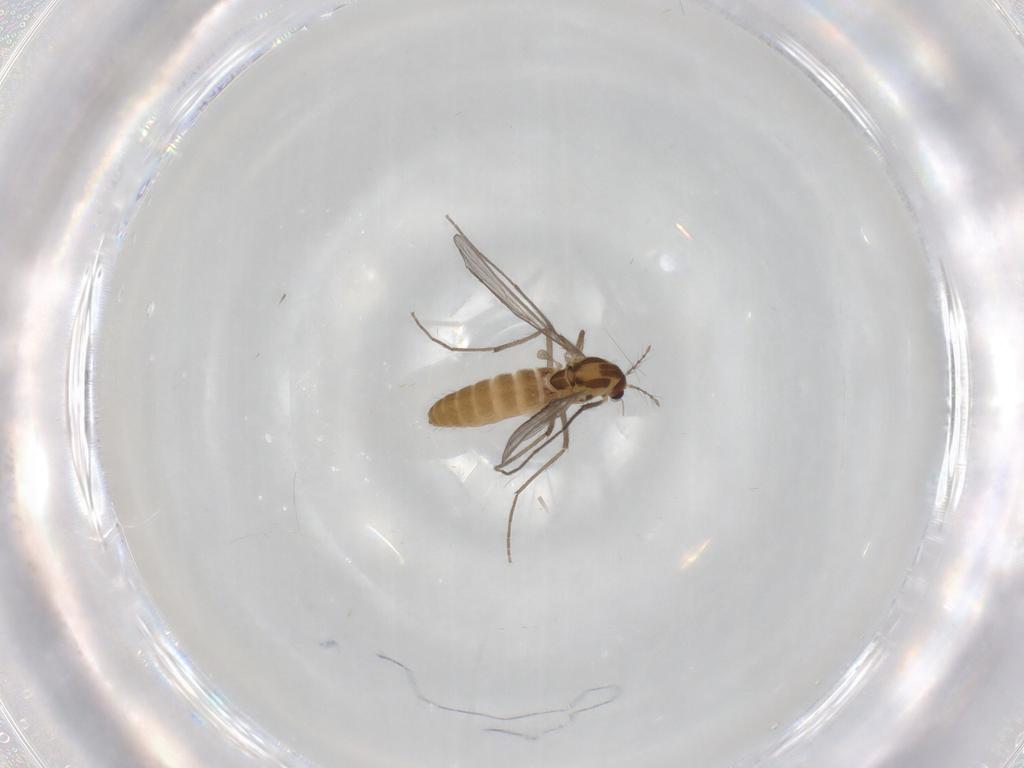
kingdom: Animalia
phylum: Arthropoda
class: Insecta
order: Diptera
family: Chironomidae
